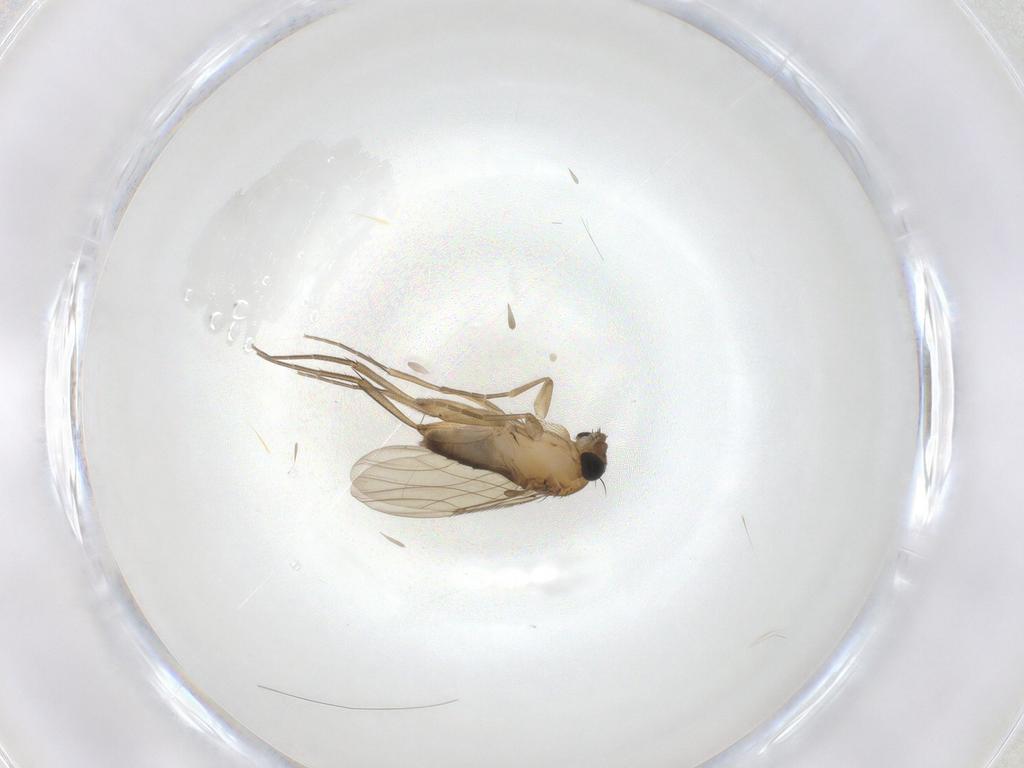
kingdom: Animalia
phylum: Arthropoda
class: Insecta
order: Diptera
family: Phoridae
